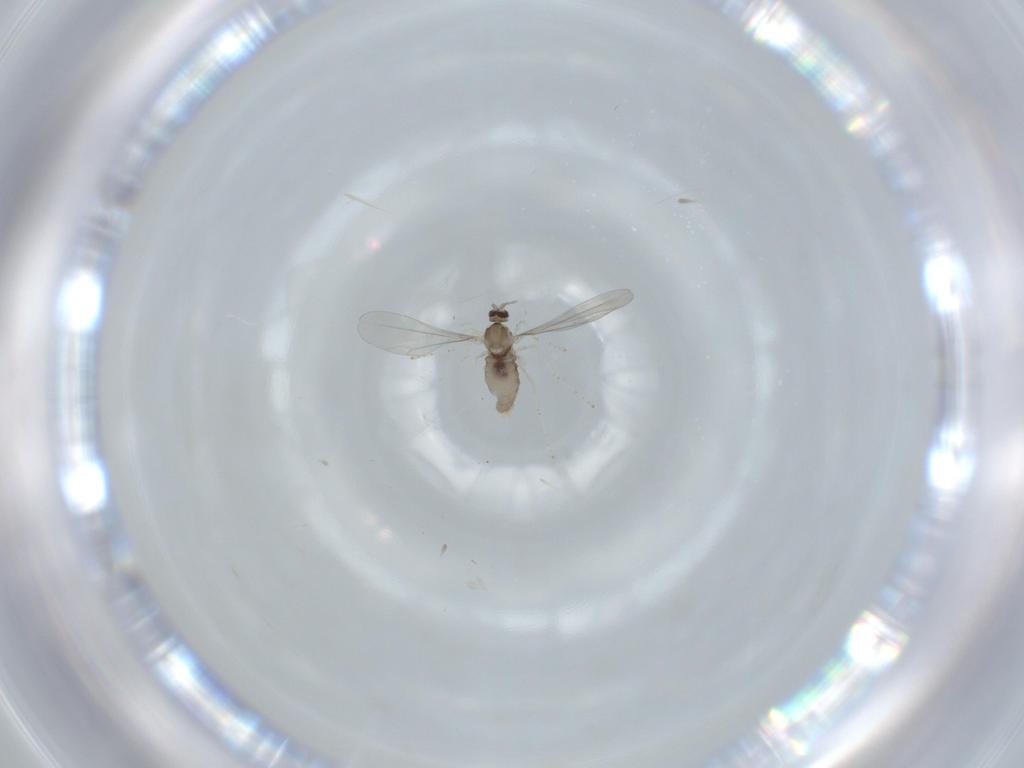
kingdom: Animalia
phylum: Arthropoda
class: Insecta
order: Diptera
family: Cecidomyiidae
